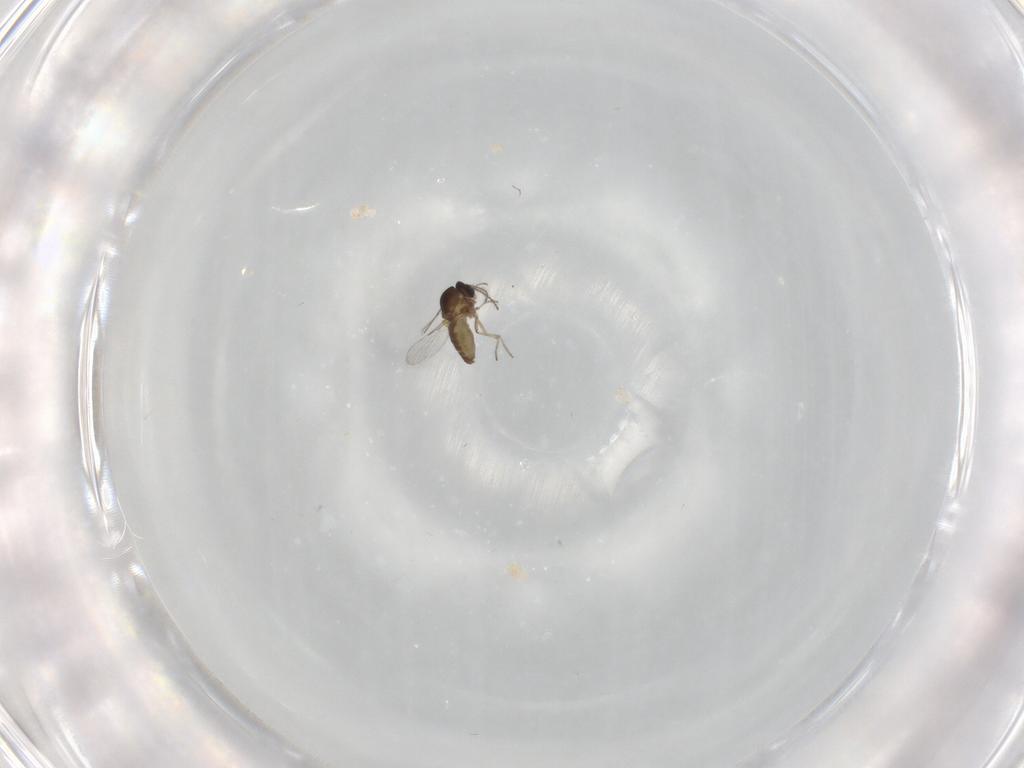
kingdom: Animalia
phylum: Arthropoda
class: Insecta
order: Diptera
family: Ceratopogonidae
